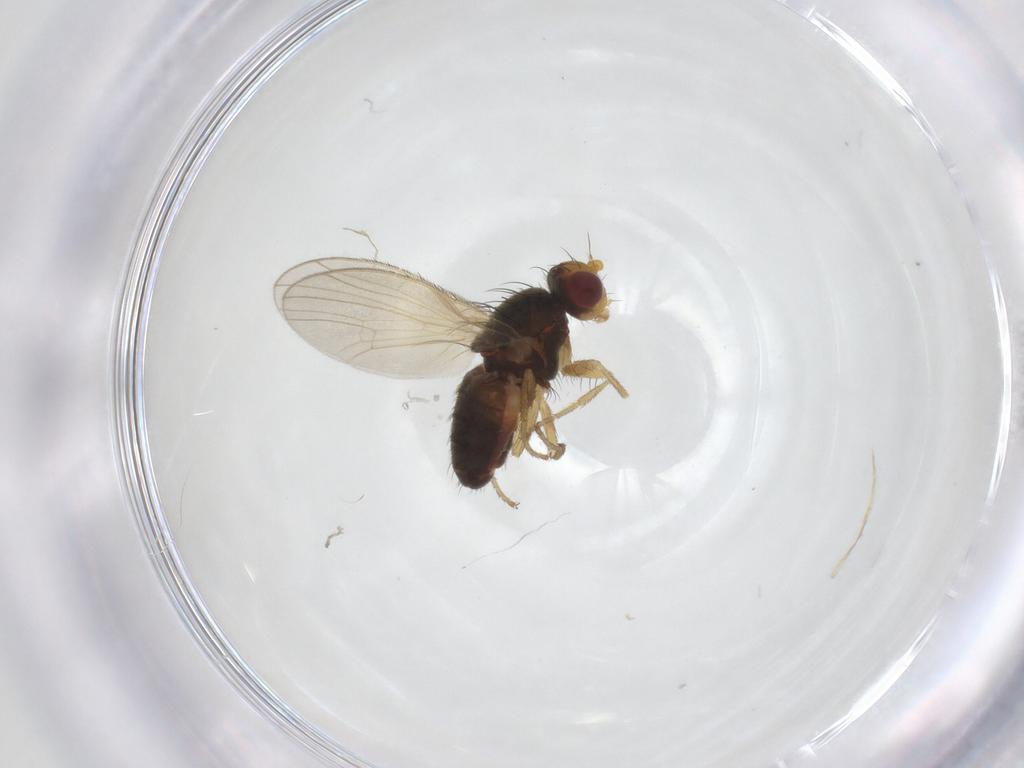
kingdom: Animalia
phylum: Arthropoda
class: Insecta
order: Diptera
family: Heleomyzidae
